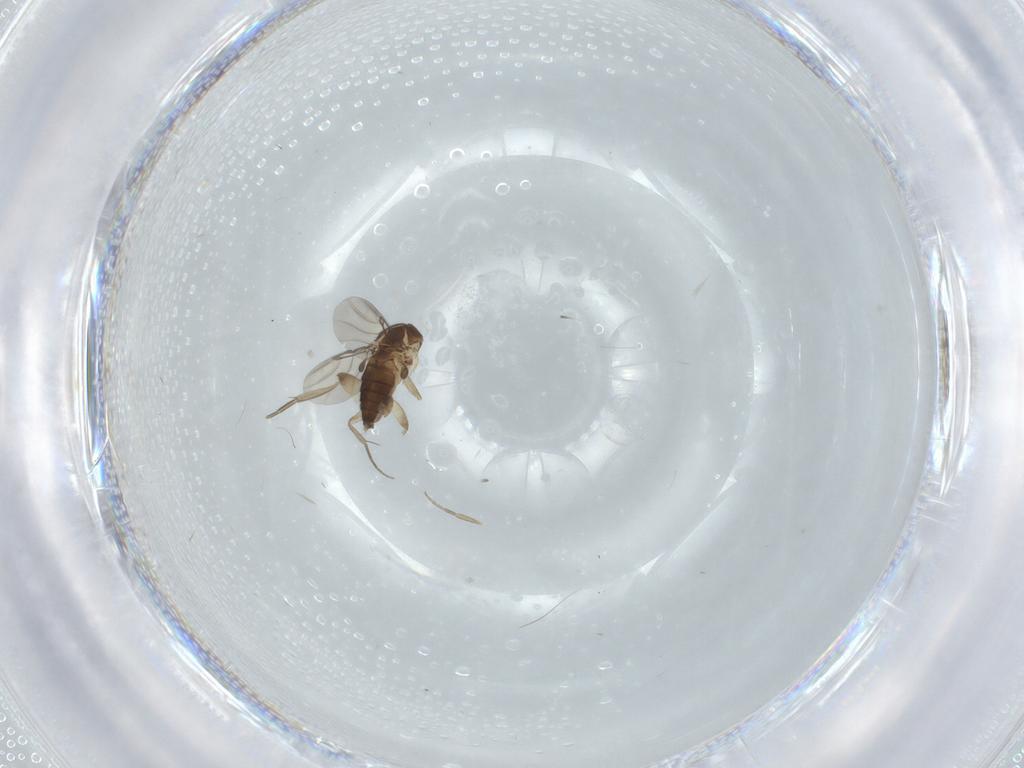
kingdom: Animalia
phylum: Arthropoda
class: Insecta
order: Diptera
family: Phoridae
